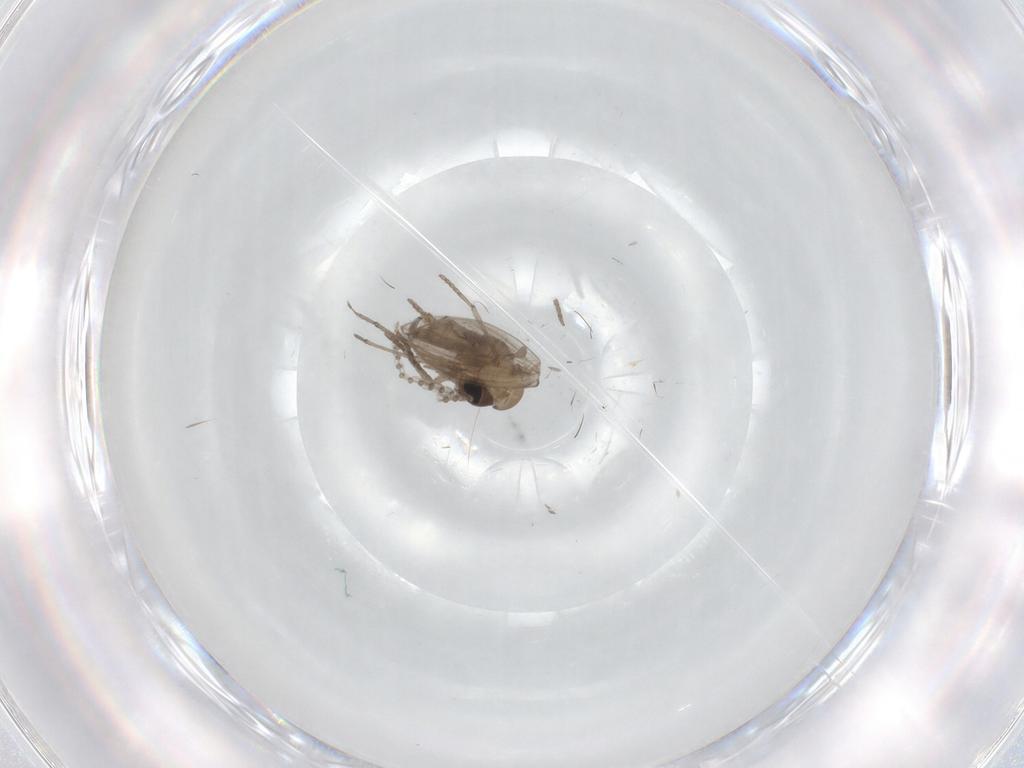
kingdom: Animalia
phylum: Arthropoda
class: Insecta
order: Diptera
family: Psychodidae
